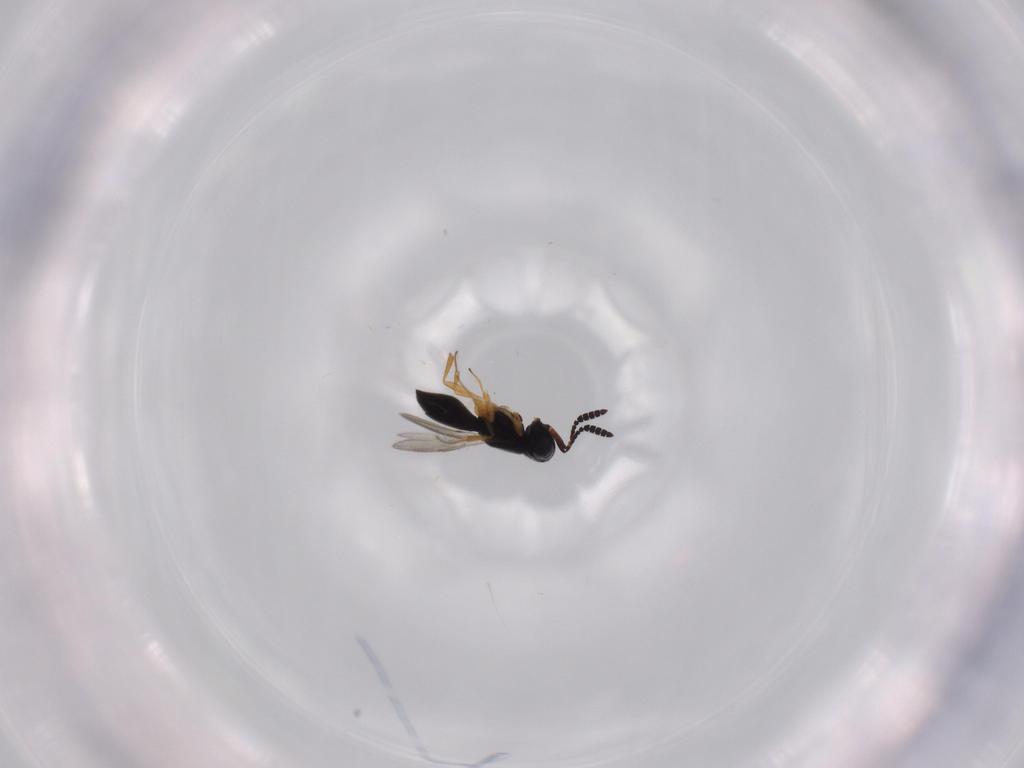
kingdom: Animalia
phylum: Arthropoda
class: Insecta
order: Hymenoptera
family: Scelionidae
